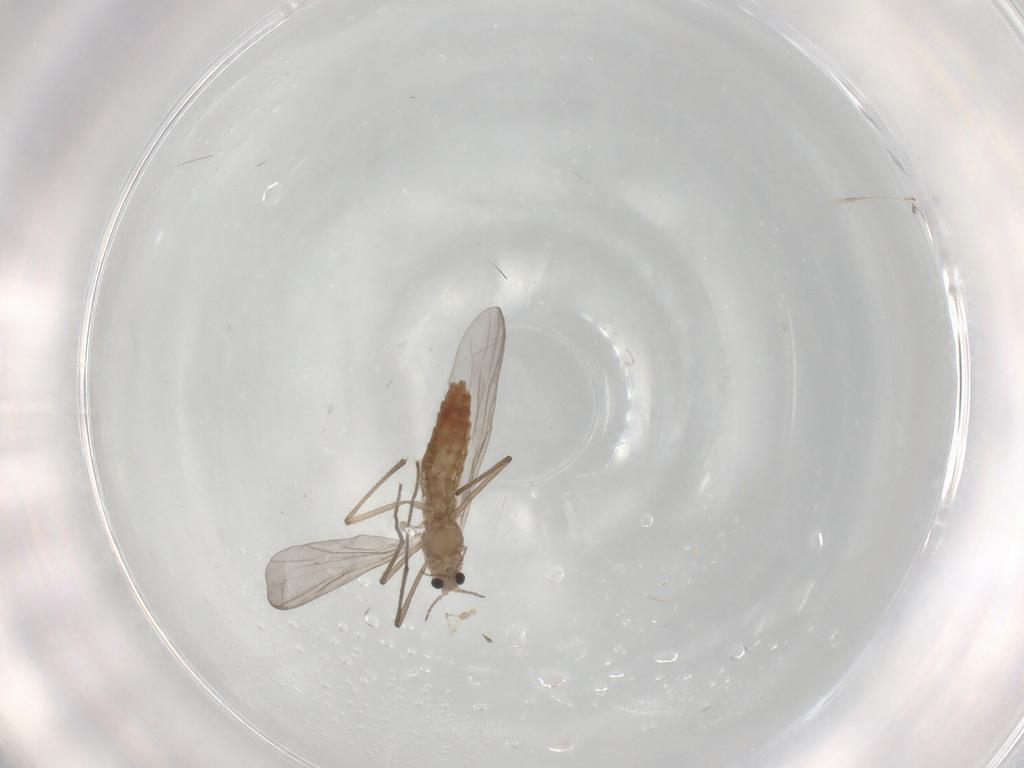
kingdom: Animalia
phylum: Arthropoda
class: Insecta
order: Diptera
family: Chironomidae
